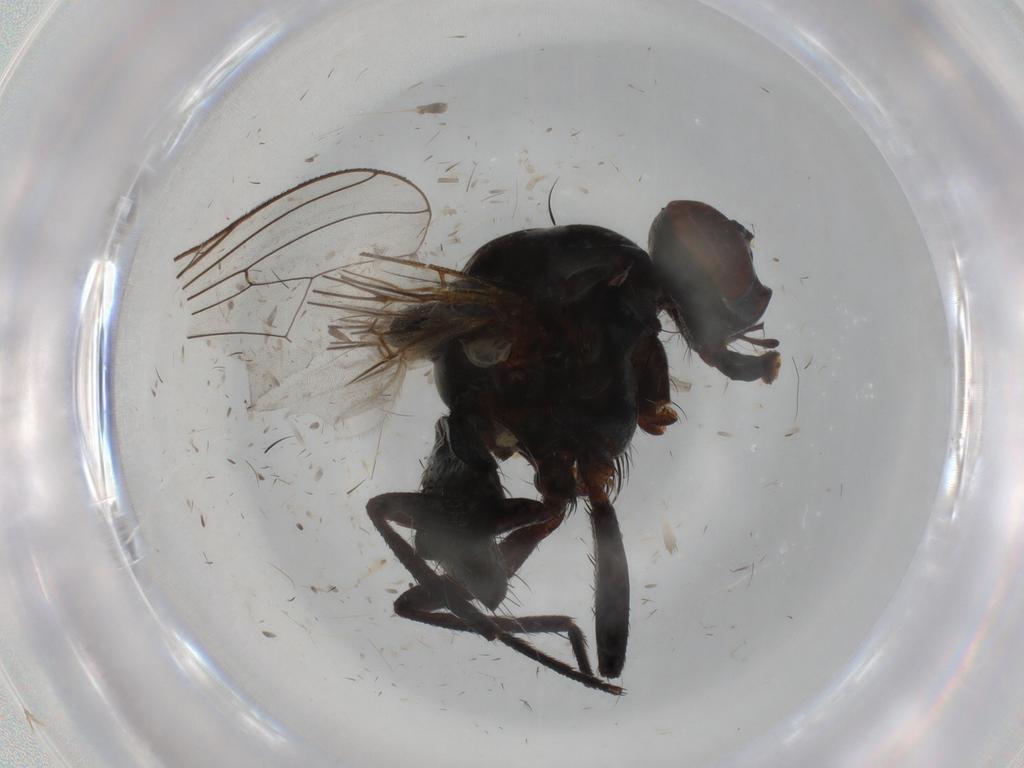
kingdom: Animalia
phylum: Arthropoda
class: Insecta
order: Diptera
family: Anthomyiidae
